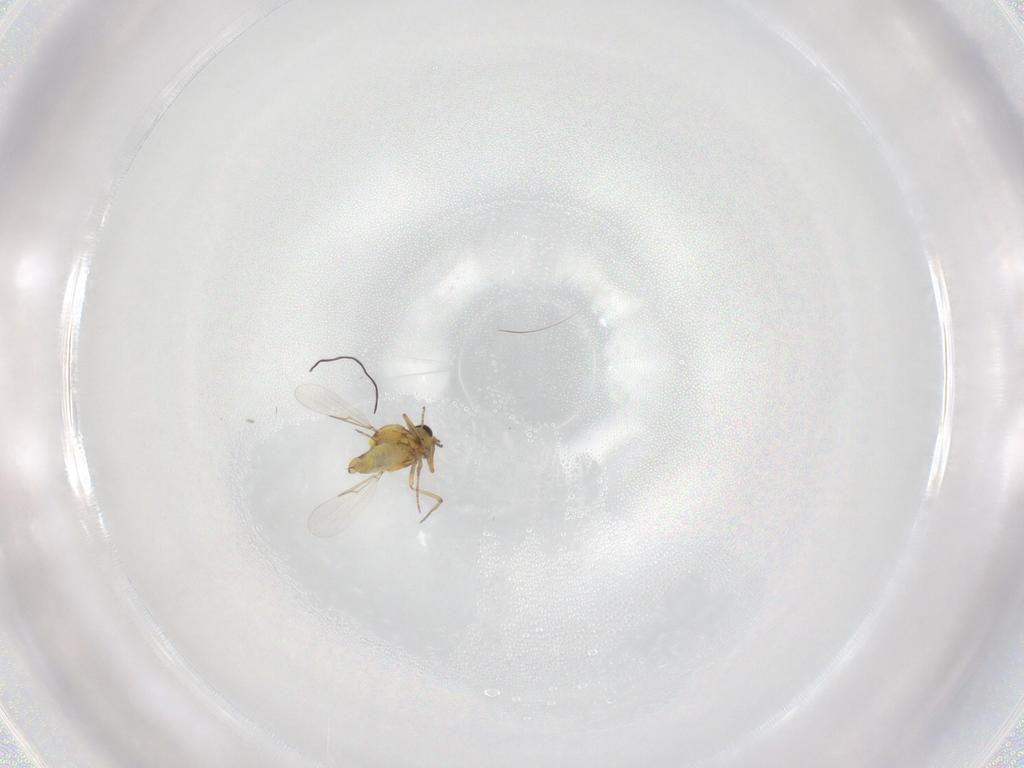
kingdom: Animalia
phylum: Arthropoda
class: Insecta
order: Diptera
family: Ceratopogonidae
